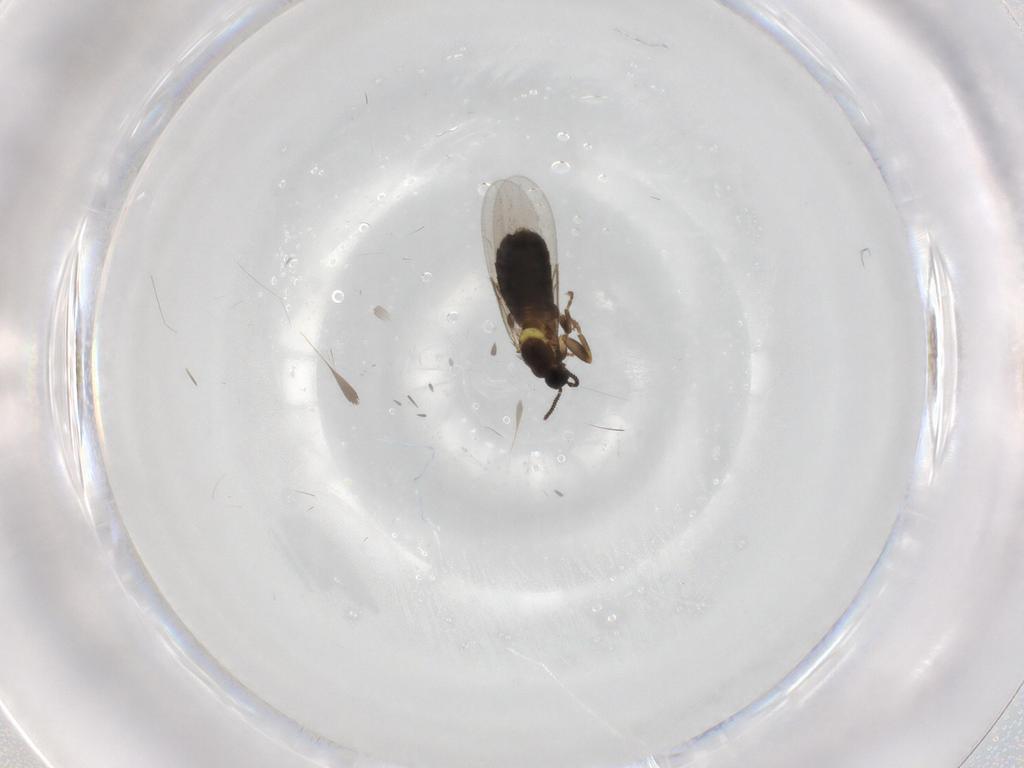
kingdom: Animalia
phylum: Arthropoda
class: Insecta
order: Diptera
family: Scatopsidae
